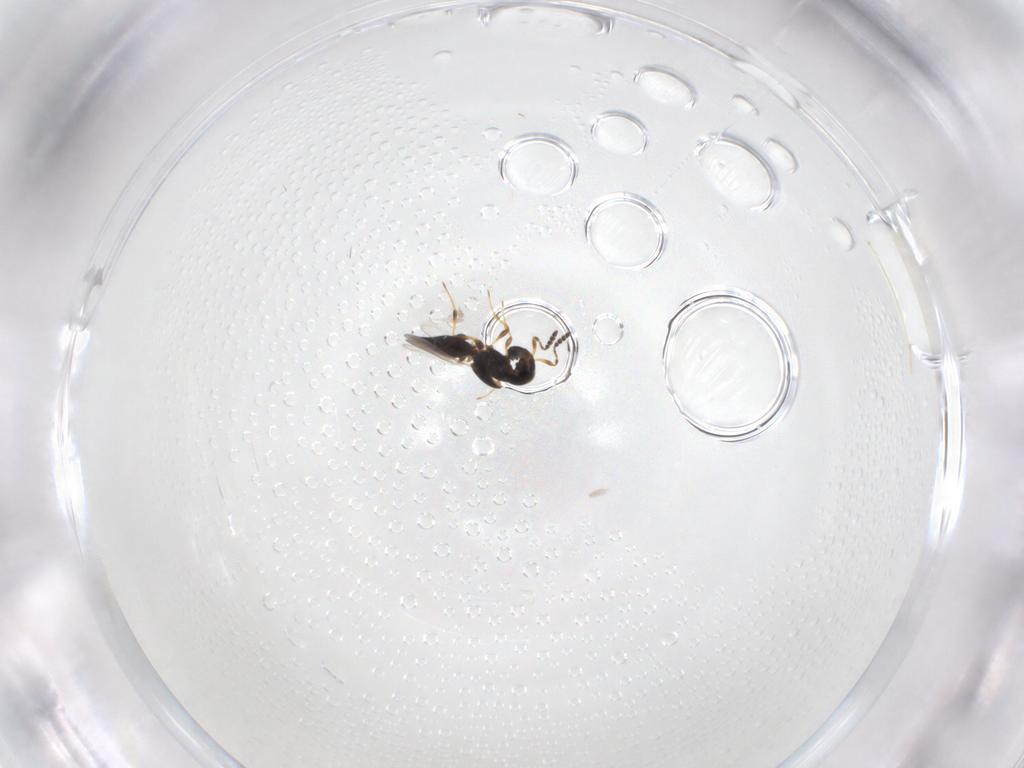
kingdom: Animalia
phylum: Arthropoda
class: Insecta
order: Hymenoptera
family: Platygastridae
